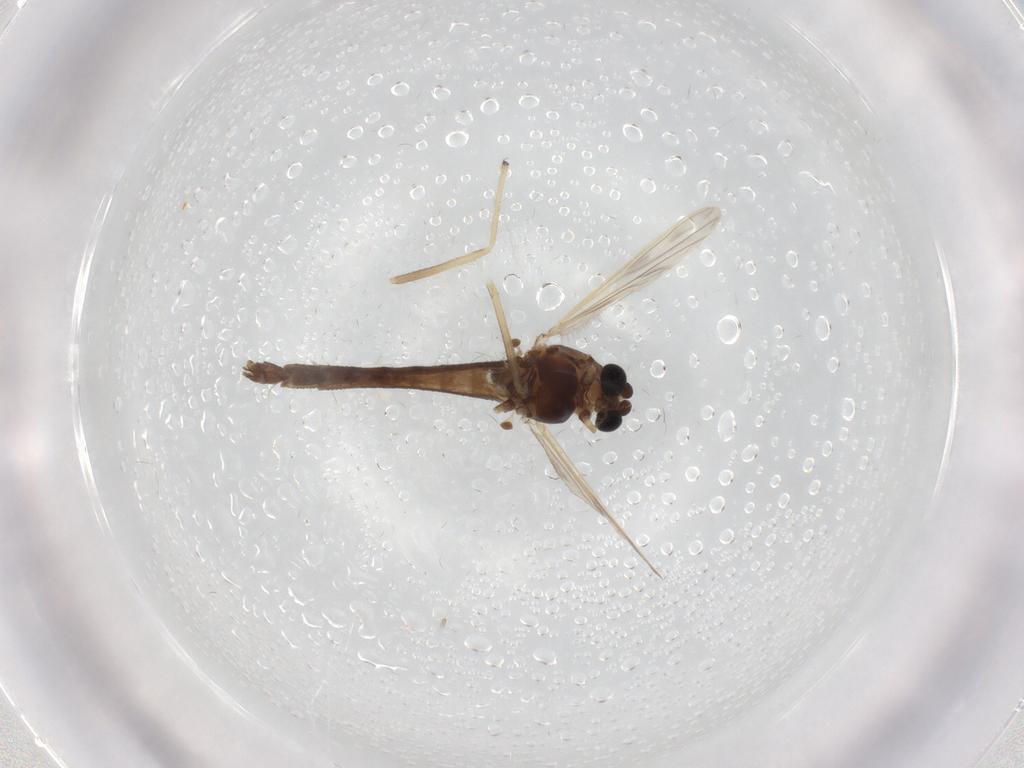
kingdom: Animalia
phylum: Arthropoda
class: Insecta
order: Diptera
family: Chironomidae
